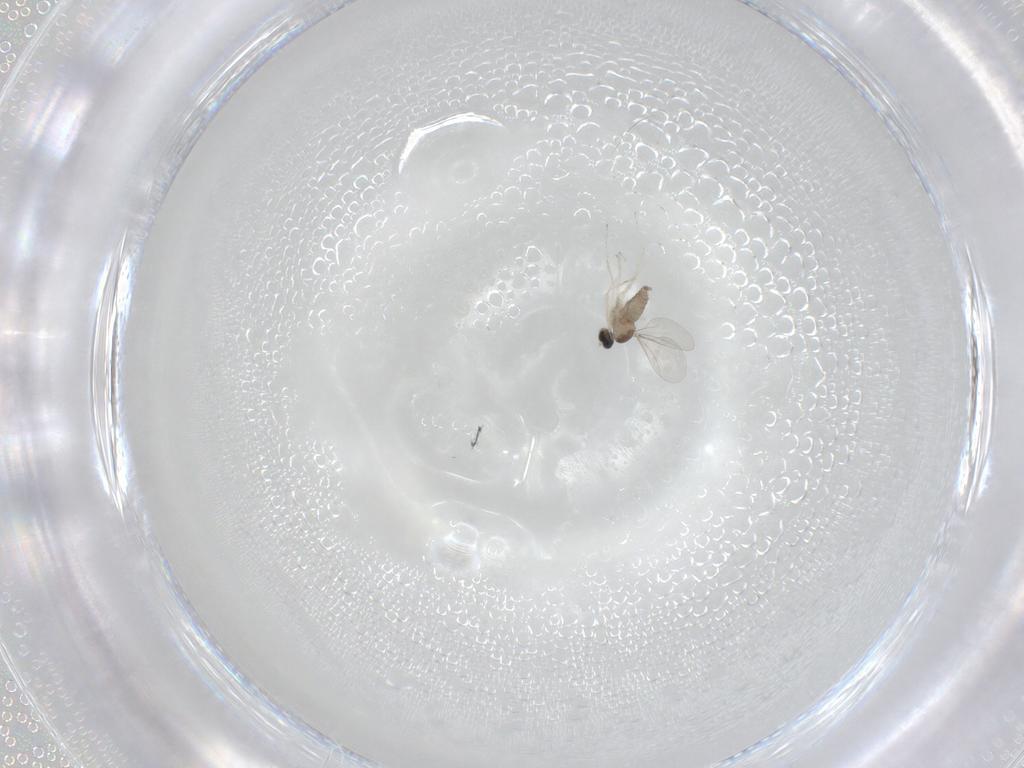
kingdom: Animalia
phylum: Arthropoda
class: Insecta
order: Diptera
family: Cecidomyiidae
